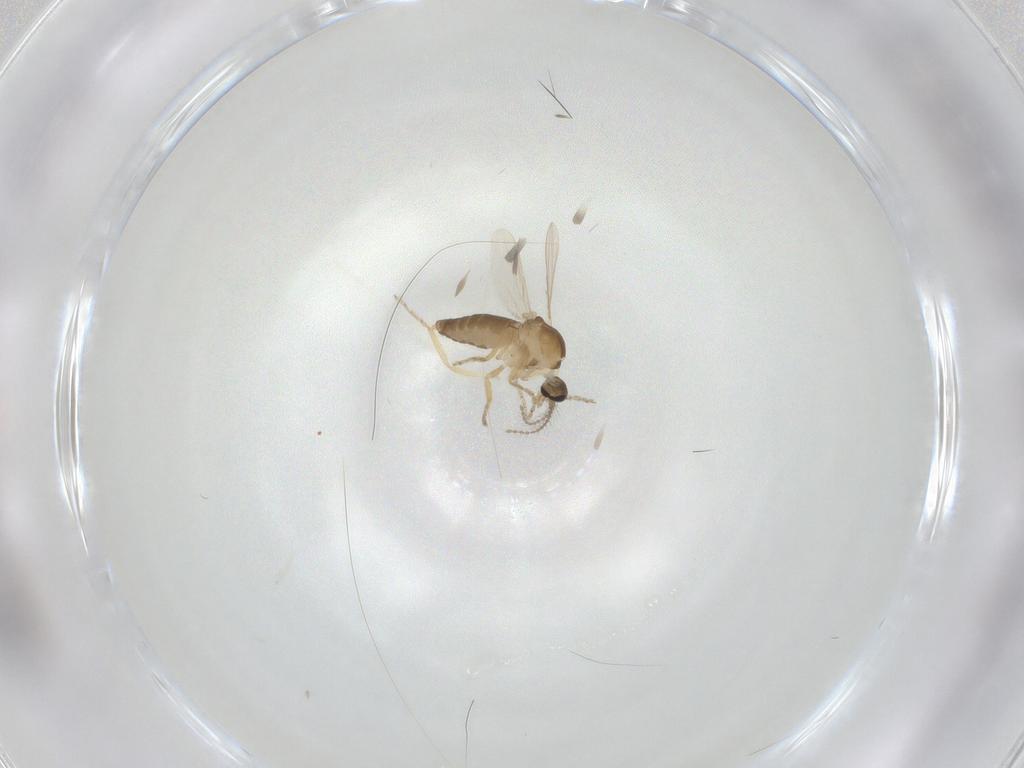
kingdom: Animalia
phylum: Arthropoda
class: Insecta
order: Diptera
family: Ceratopogonidae
